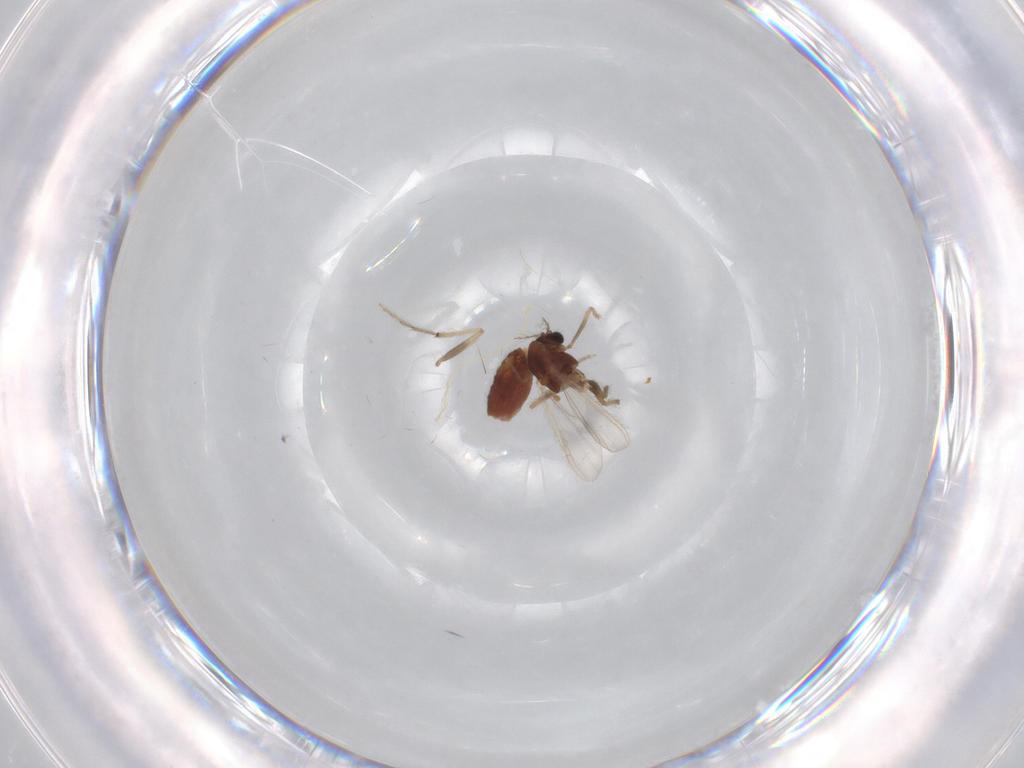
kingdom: Animalia
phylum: Arthropoda
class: Insecta
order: Diptera
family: Chironomidae
